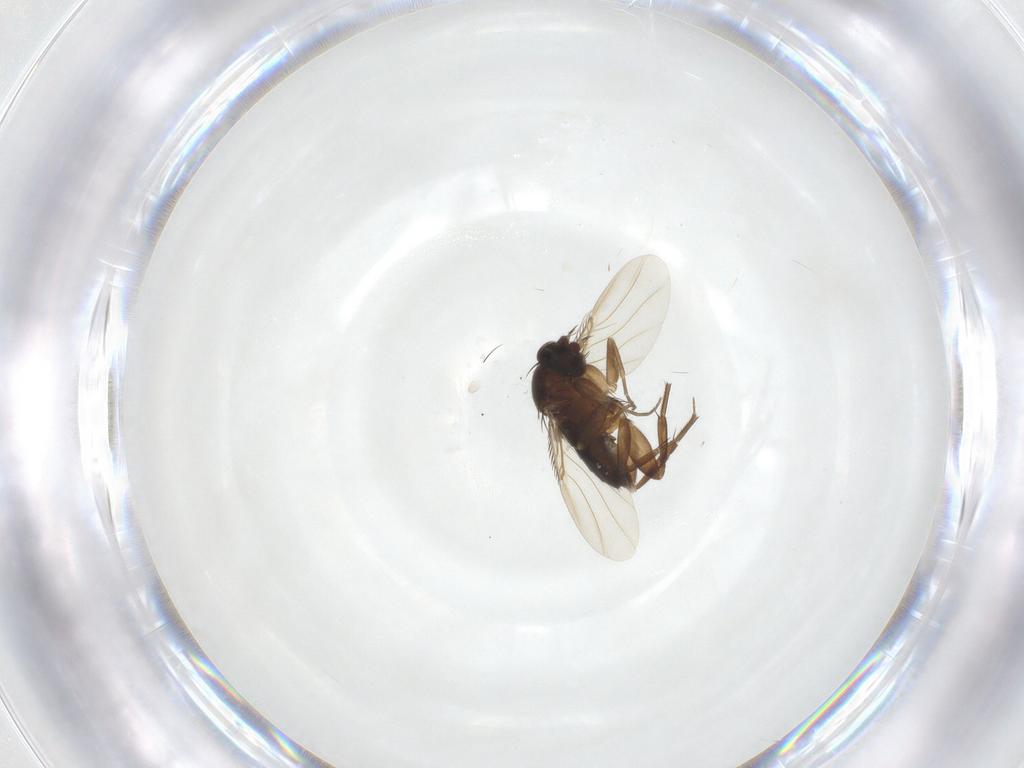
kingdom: Animalia
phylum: Arthropoda
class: Insecta
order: Diptera
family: Phoridae
